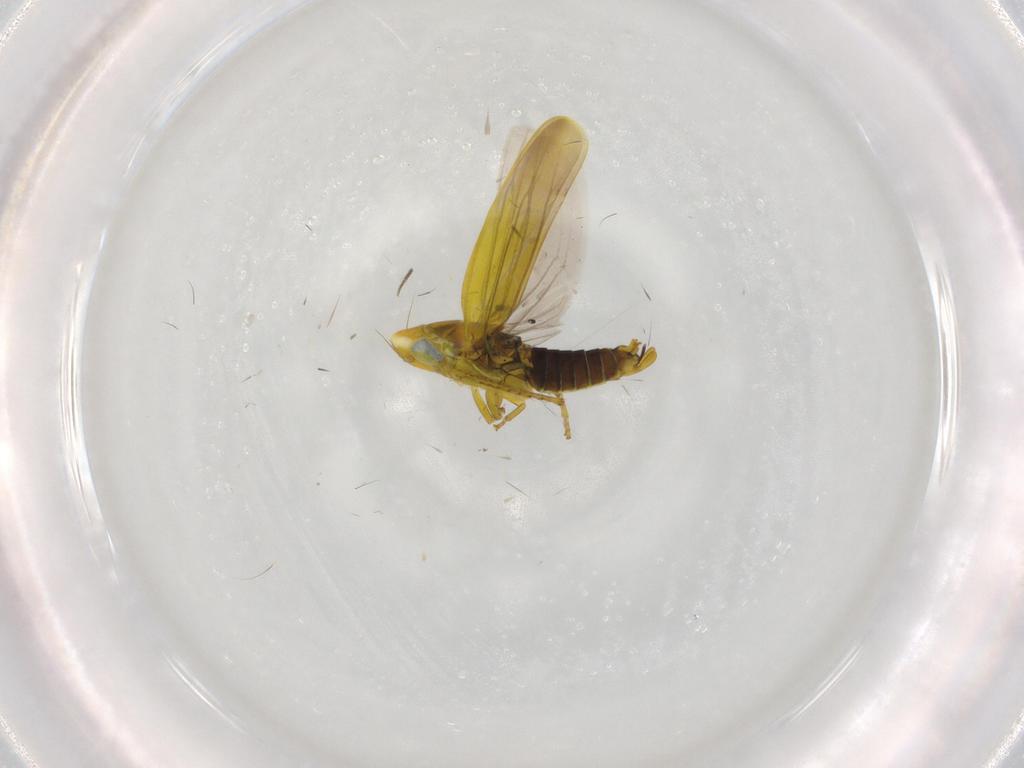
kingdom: Animalia
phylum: Arthropoda
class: Insecta
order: Hemiptera
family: Cicadellidae
